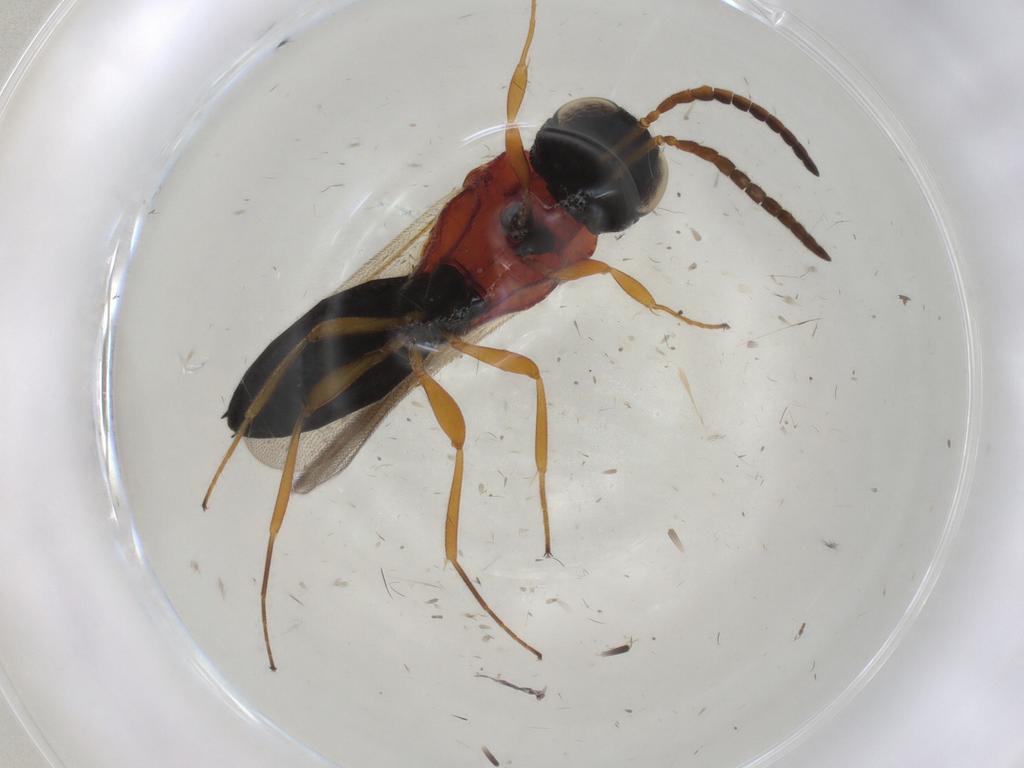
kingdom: Animalia
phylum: Arthropoda
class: Insecta
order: Hymenoptera
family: Scelionidae
